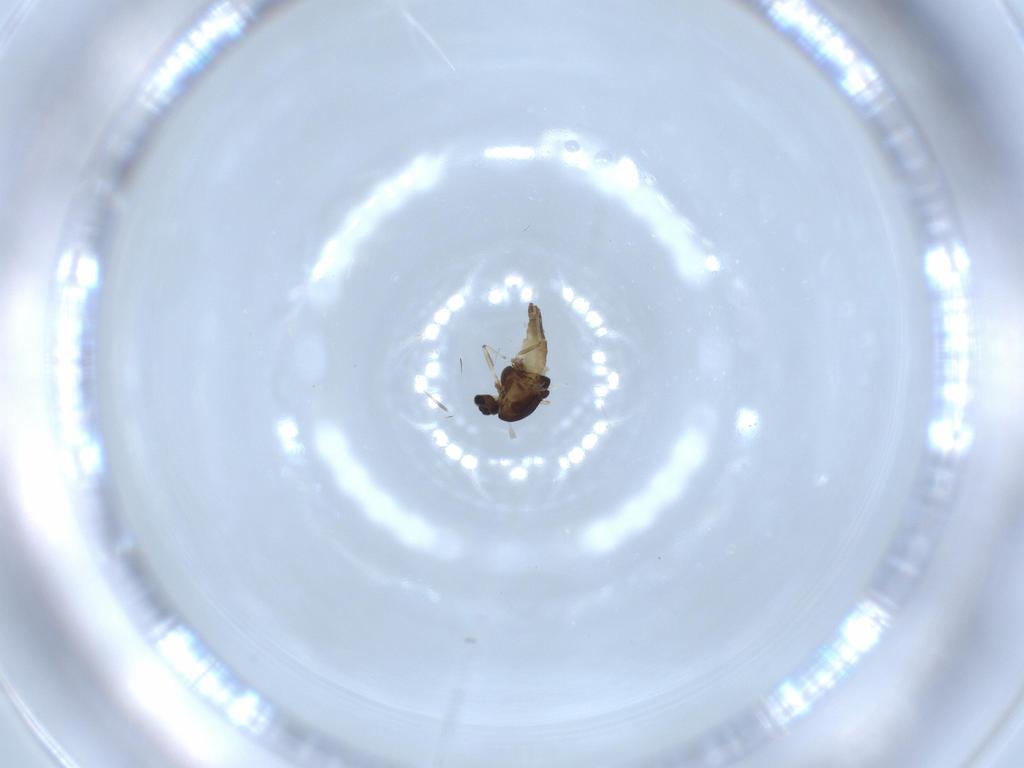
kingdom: Animalia
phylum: Arthropoda
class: Insecta
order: Diptera
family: Chironomidae
